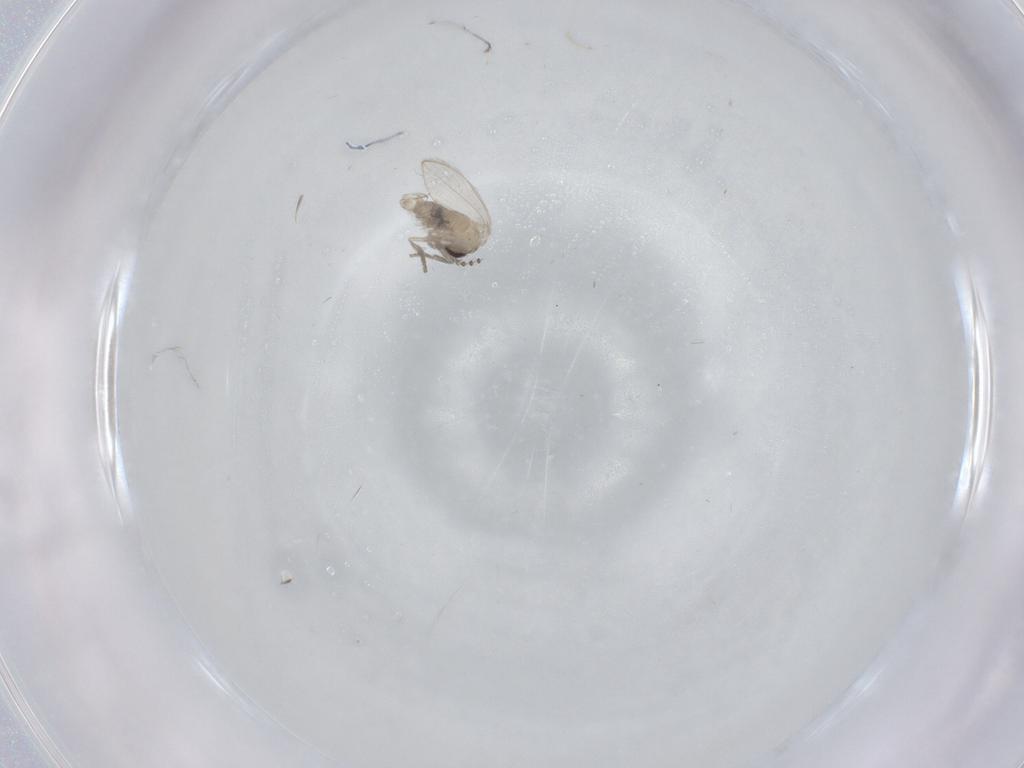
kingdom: Animalia
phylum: Arthropoda
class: Insecta
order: Diptera
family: Psychodidae
